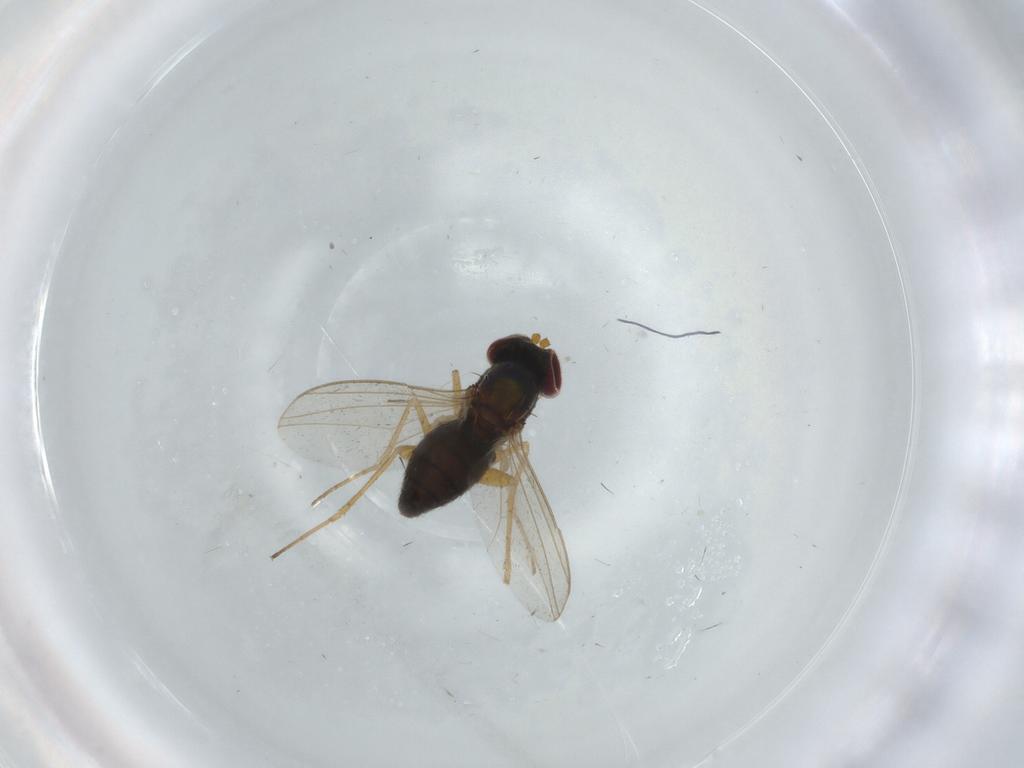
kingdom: Animalia
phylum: Arthropoda
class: Insecta
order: Diptera
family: Dolichopodidae
